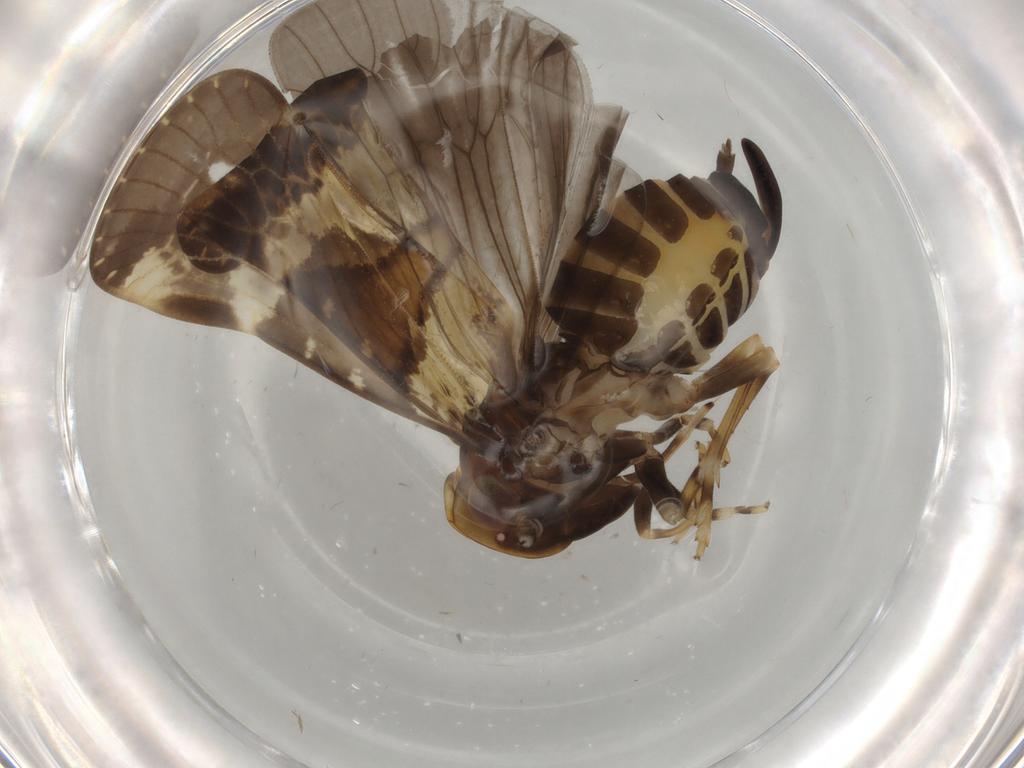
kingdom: Animalia
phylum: Arthropoda
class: Insecta
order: Hemiptera
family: Cixiidae
